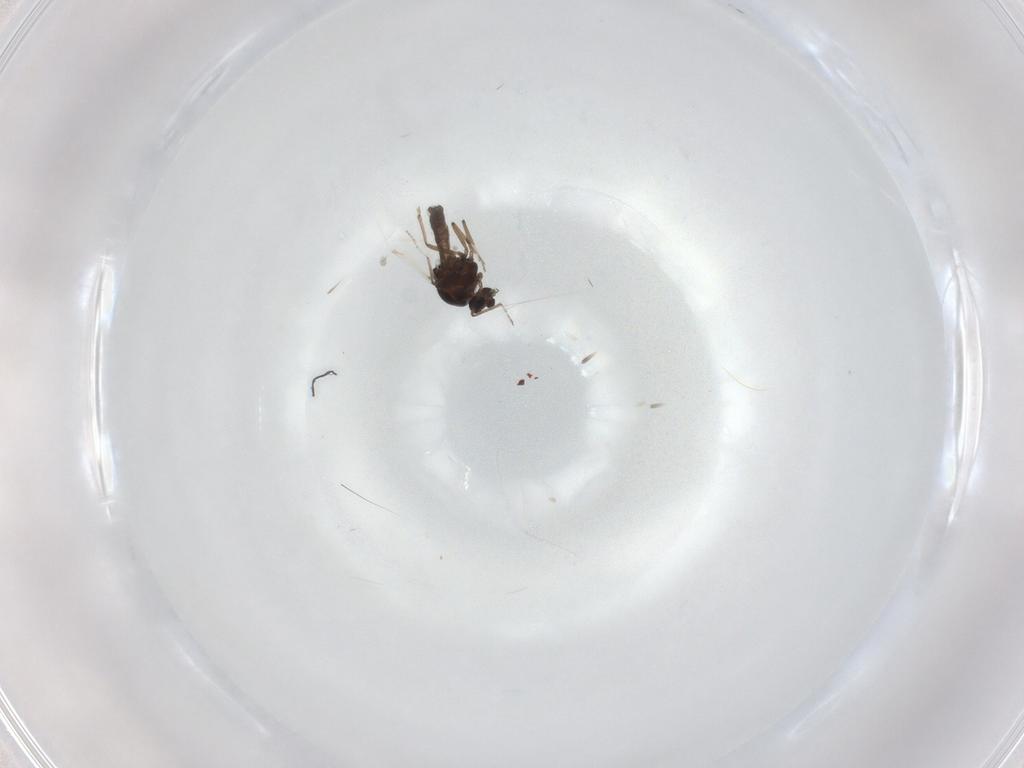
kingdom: Animalia
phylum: Arthropoda
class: Insecta
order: Diptera
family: Ceratopogonidae
